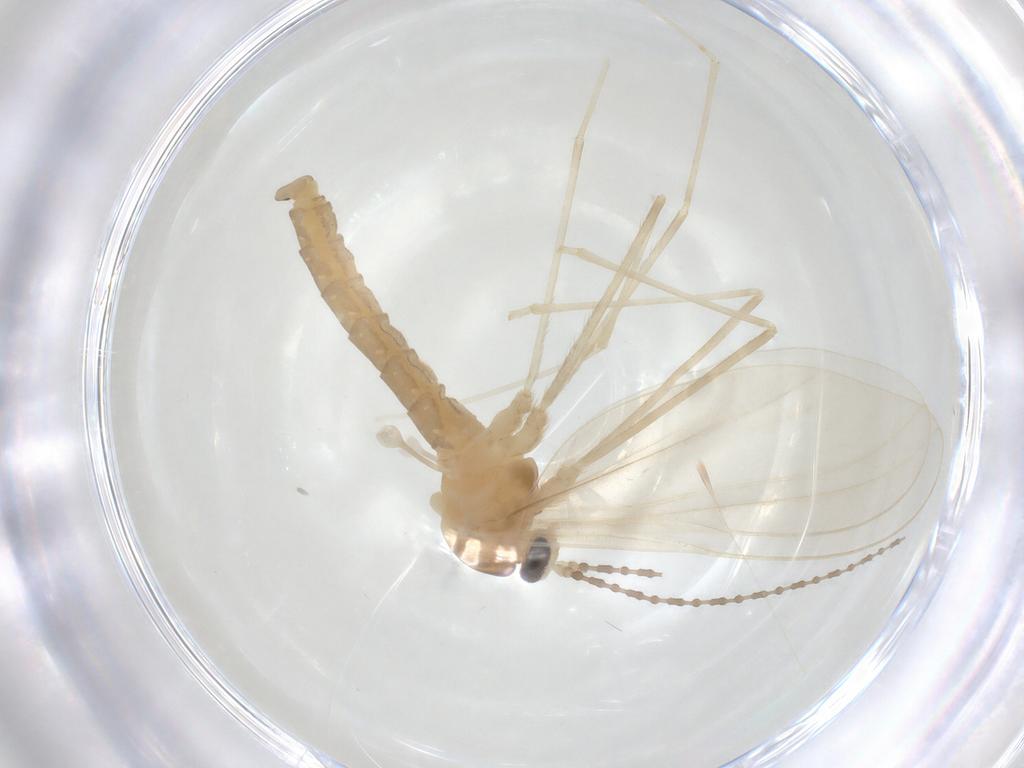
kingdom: Animalia
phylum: Arthropoda
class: Insecta
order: Diptera
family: Cecidomyiidae
